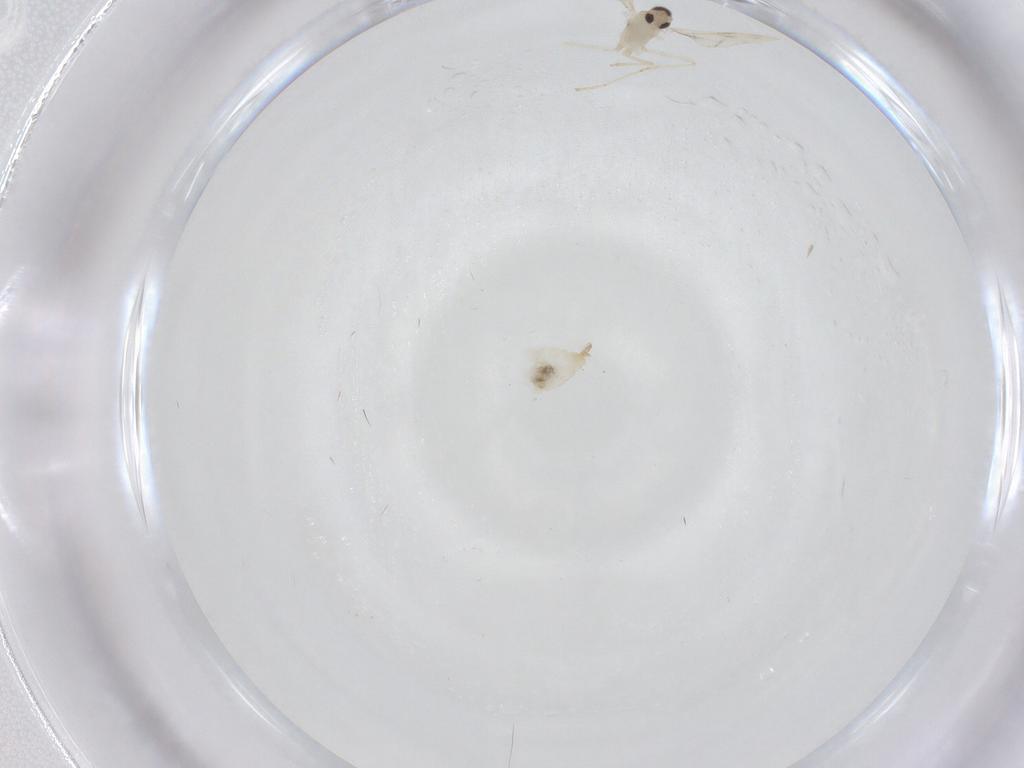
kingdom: Animalia
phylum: Arthropoda
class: Insecta
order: Diptera
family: Cecidomyiidae
